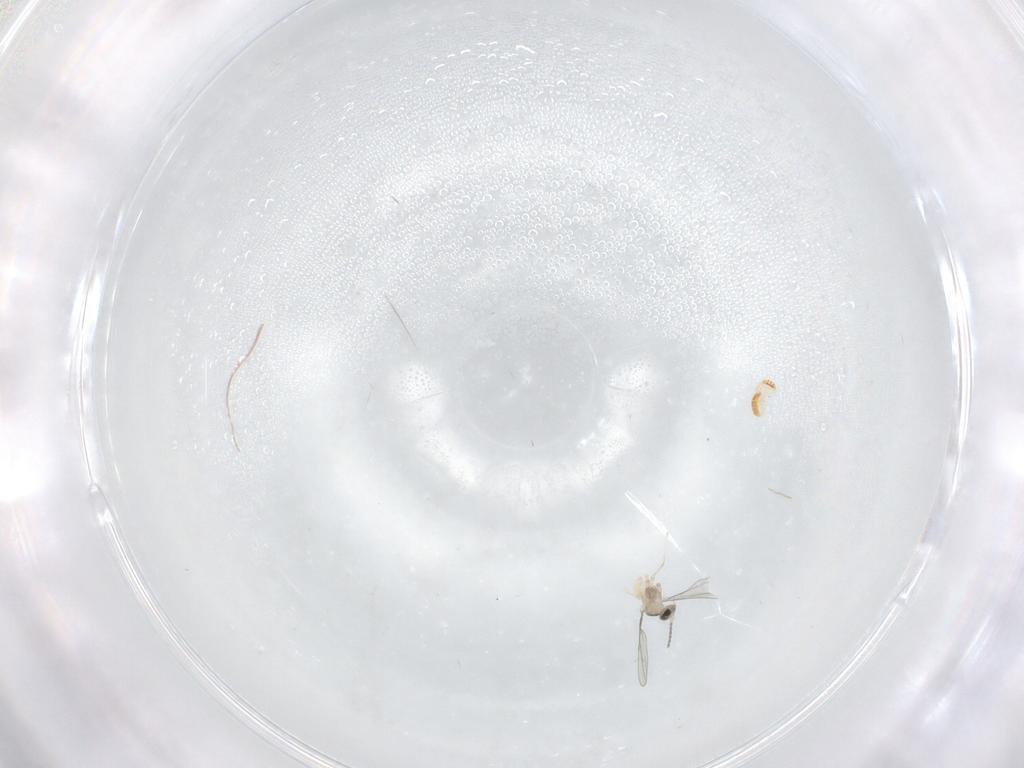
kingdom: Animalia
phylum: Arthropoda
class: Insecta
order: Diptera
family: Cecidomyiidae
